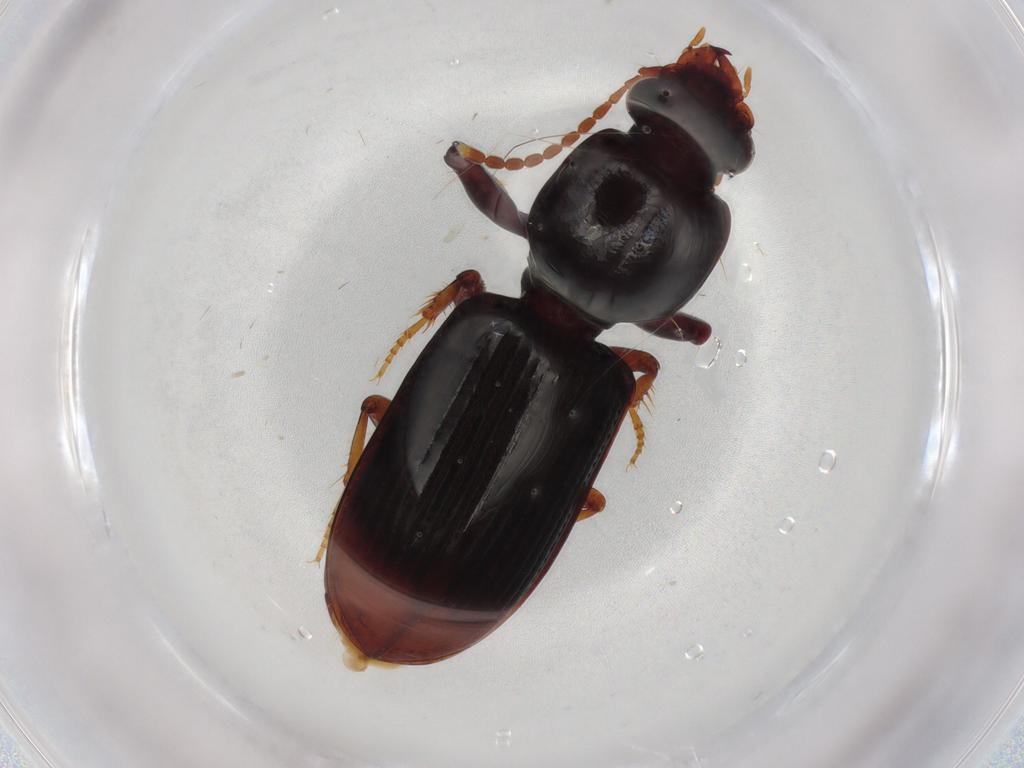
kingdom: Animalia
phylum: Arthropoda
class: Insecta
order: Coleoptera
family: Carabidae
